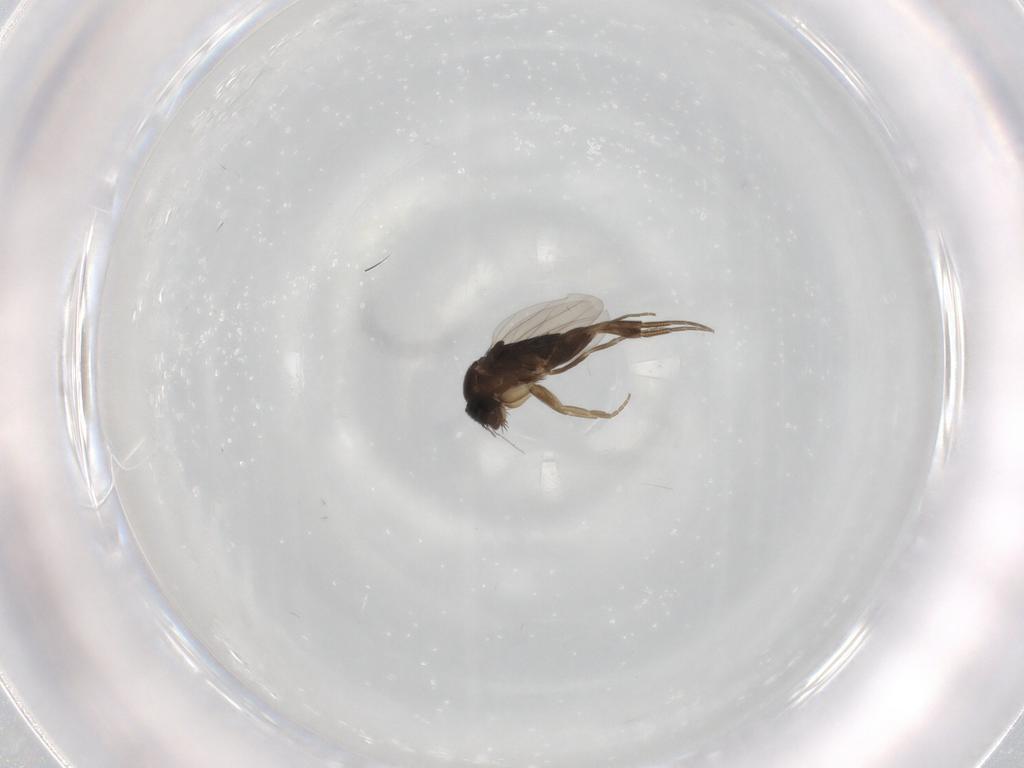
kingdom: Animalia
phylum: Arthropoda
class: Insecta
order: Diptera
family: Phoridae
